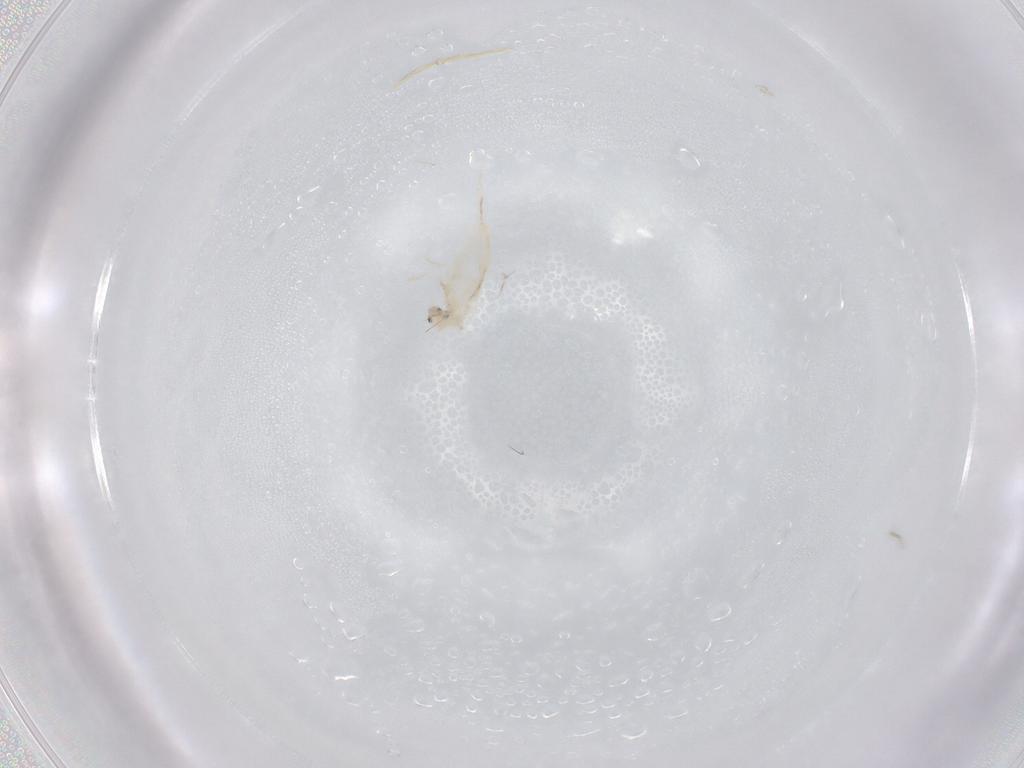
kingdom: Animalia
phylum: Arthropoda
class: Collembola
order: Entomobryomorpha
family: Entomobryidae
